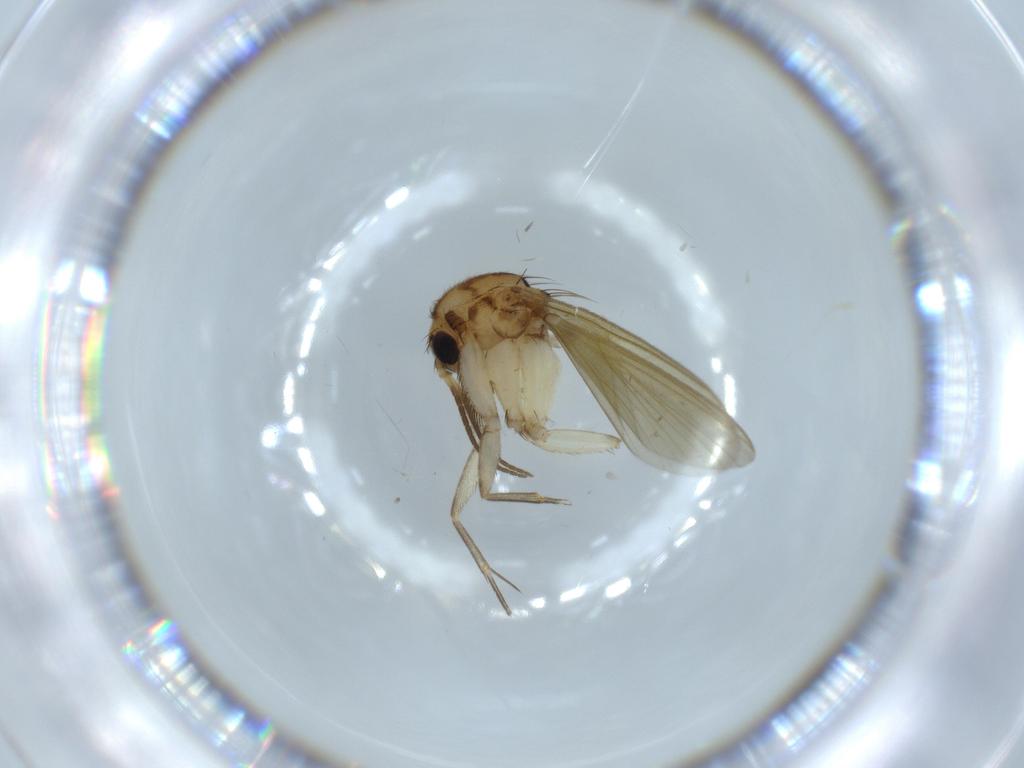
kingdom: Animalia
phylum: Arthropoda
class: Insecta
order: Diptera
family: Mycetophilidae
